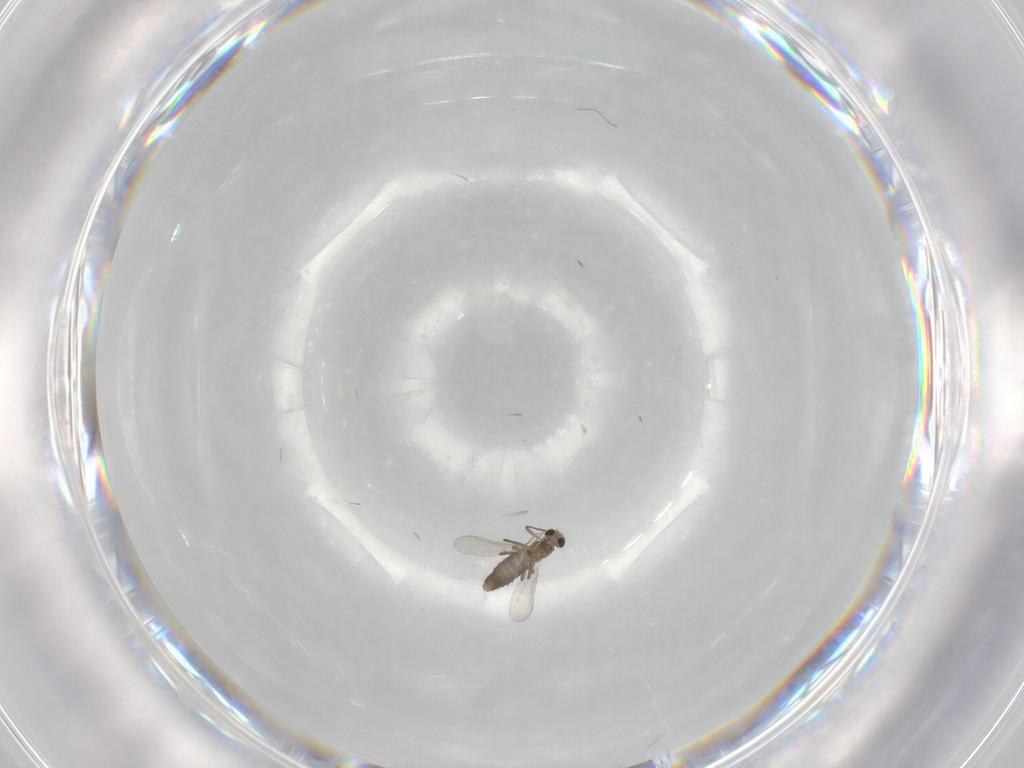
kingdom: Animalia
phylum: Arthropoda
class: Insecta
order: Diptera
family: Chironomidae
